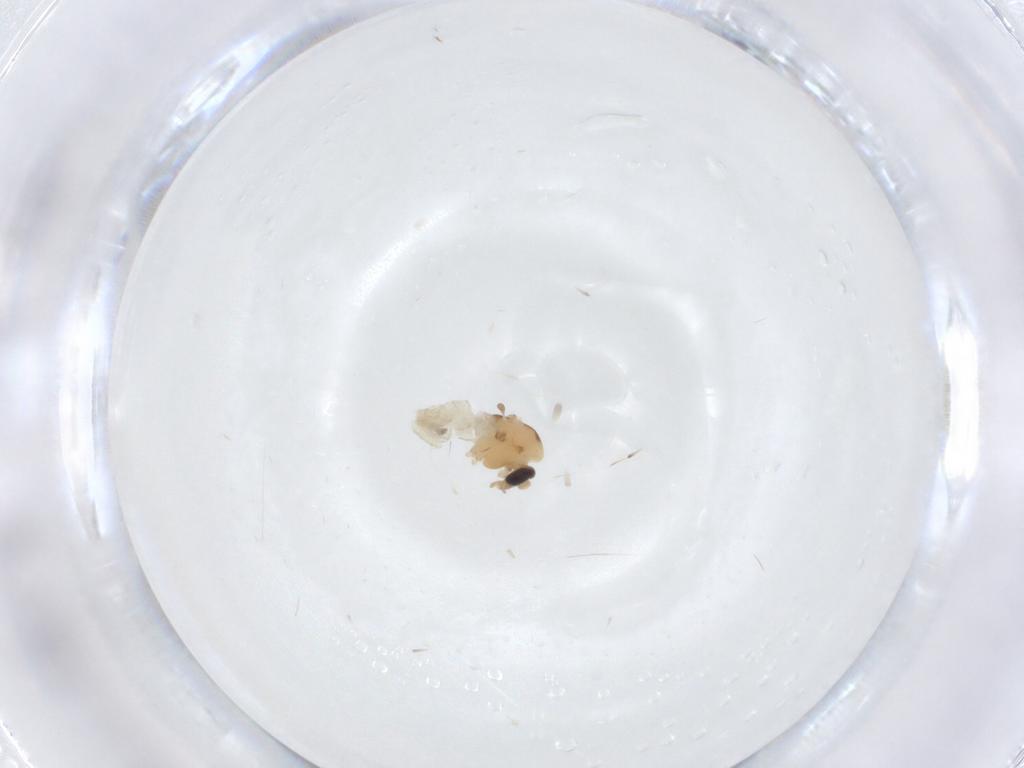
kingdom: Animalia
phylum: Arthropoda
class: Insecta
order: Diptera
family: Chironomidae
